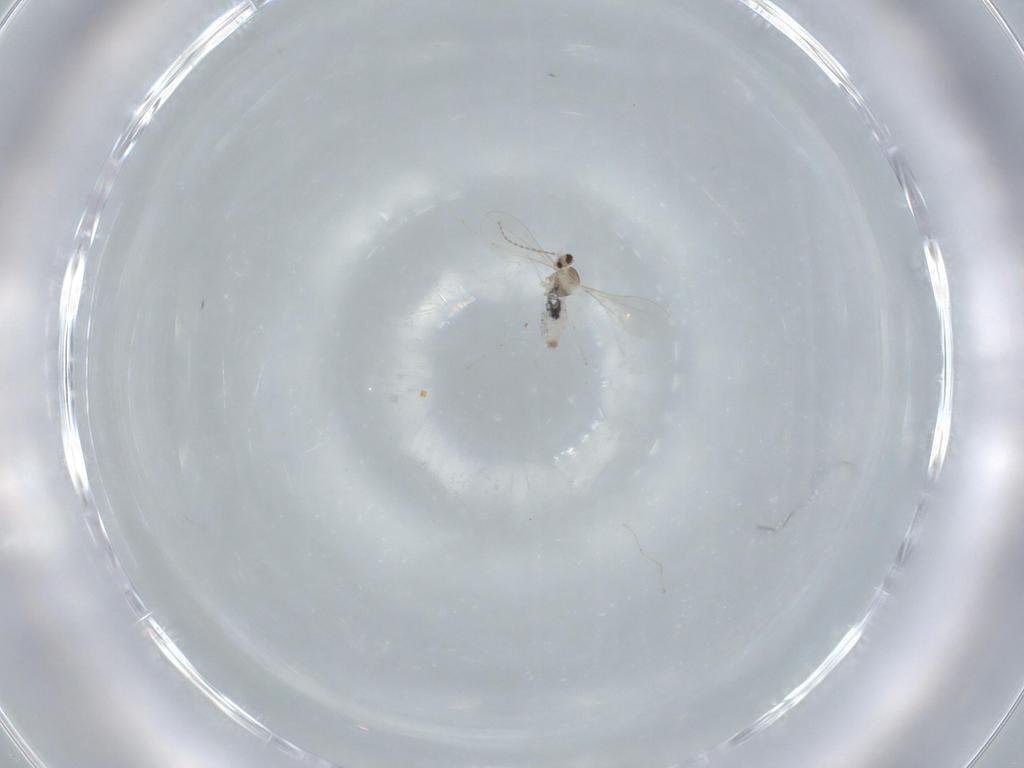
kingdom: Animalia
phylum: Arthropoda
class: Insecta
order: Diptera
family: Cecidomyiidae
